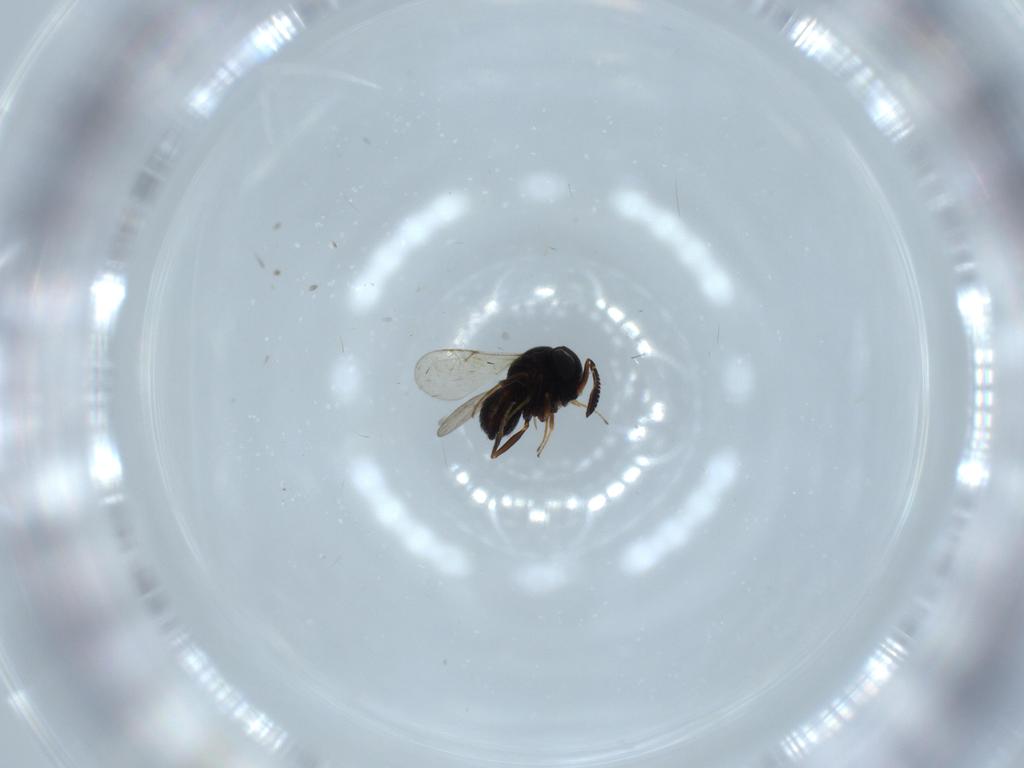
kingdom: Animalia
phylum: Arthropoda
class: Insecta
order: Hymenoptera
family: Scelionidae
